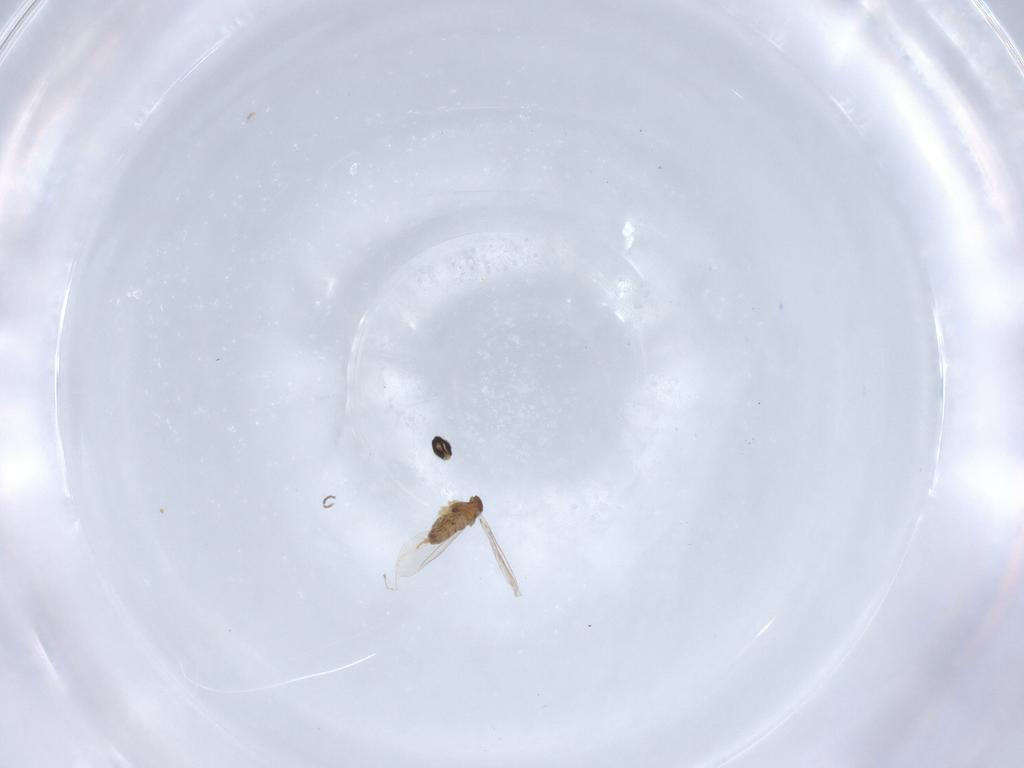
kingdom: Animalia
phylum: Arthropoda
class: Insecta
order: Diptera
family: Cecidomyiidae
